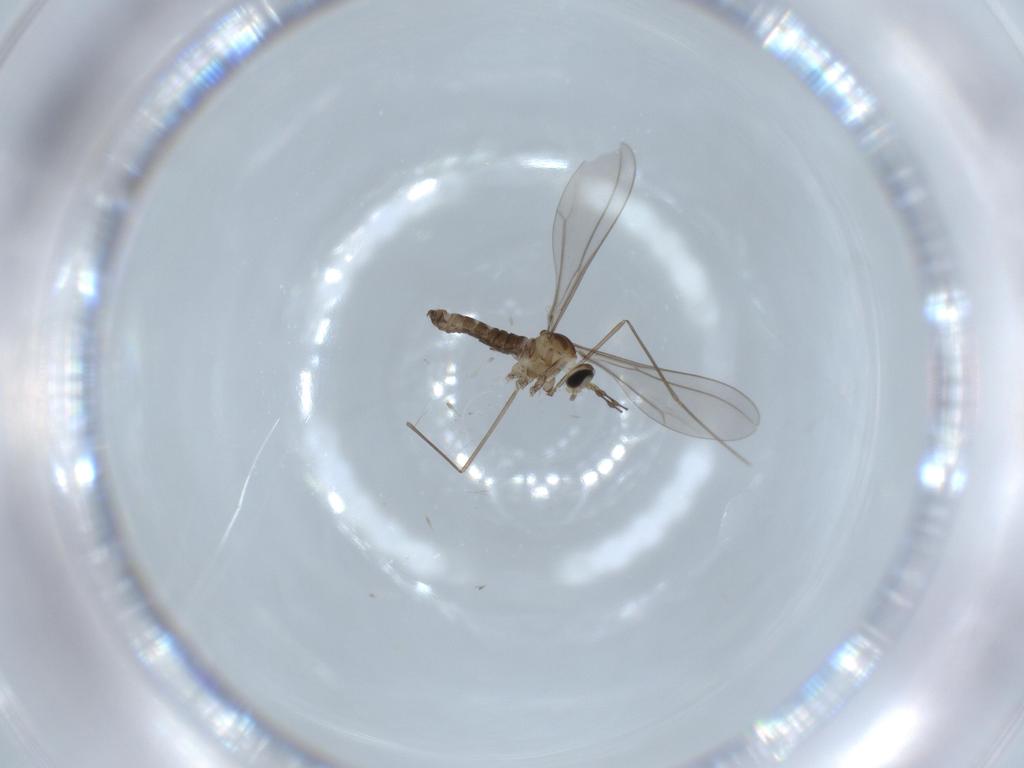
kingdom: Animalia
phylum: Arthropoda
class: Insecta
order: Diptera
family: Cecidomyiidae
